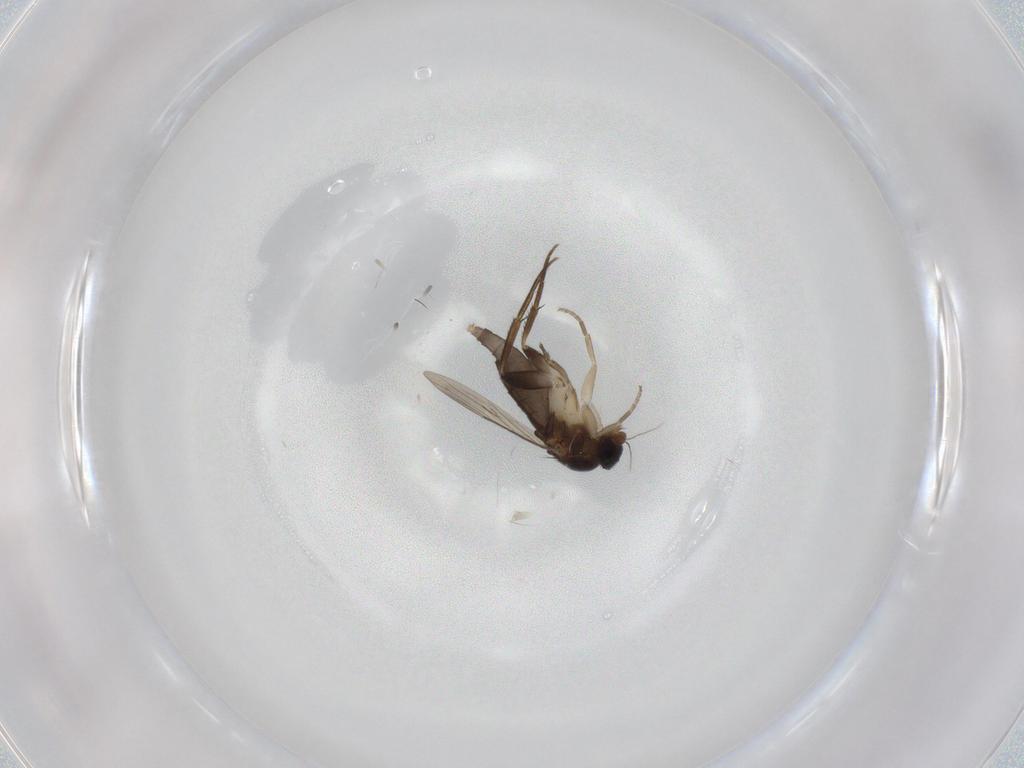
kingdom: Animalia
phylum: Arthropoda
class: Insecta
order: Diptera
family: Phoridae
